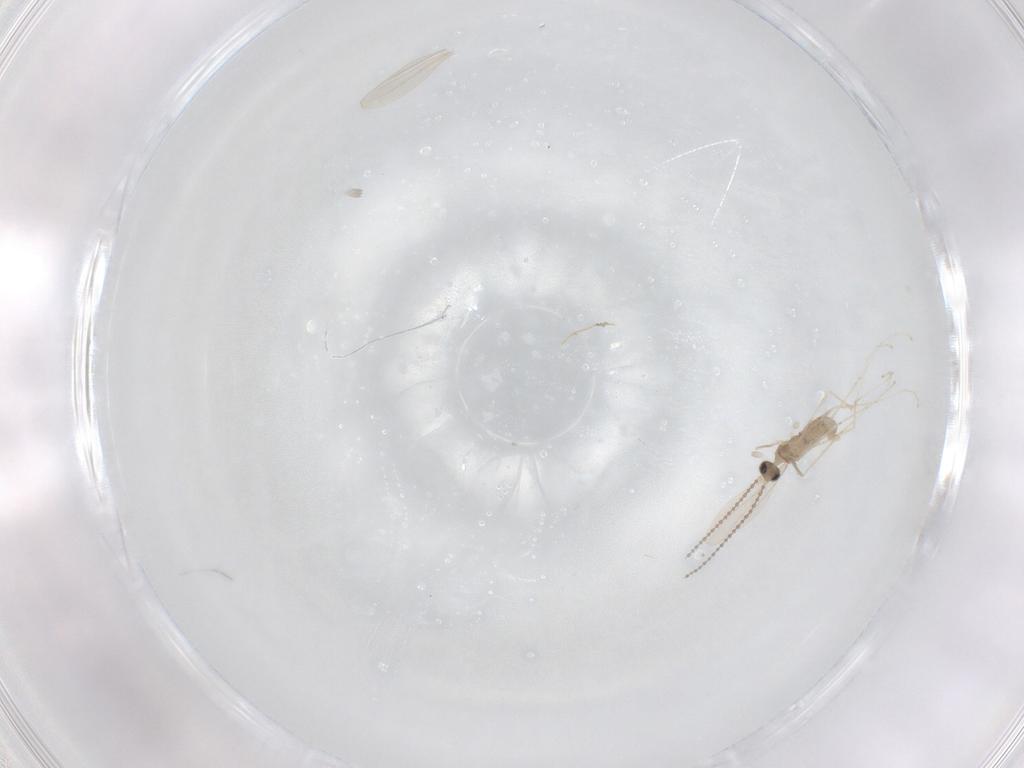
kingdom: Animalia
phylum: Arthropoda
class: Insecta
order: Diptera
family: Cecidomyiidae
